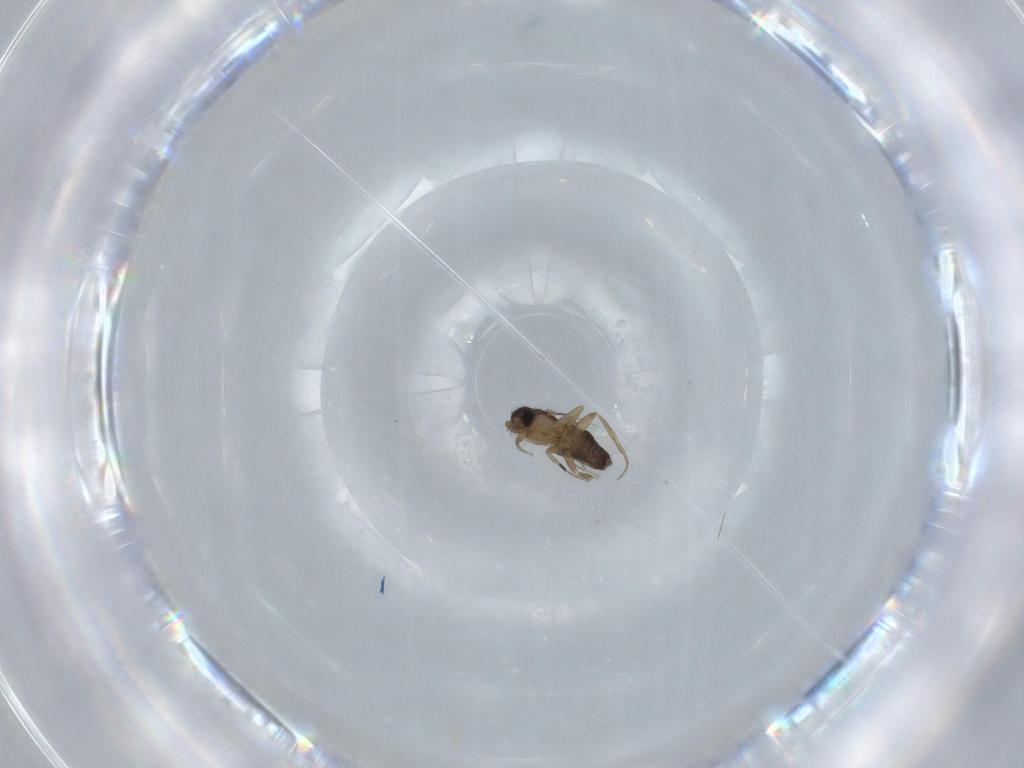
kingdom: Animalia
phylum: Arthropoda
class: Insecta
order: Diptera
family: Phoridae
